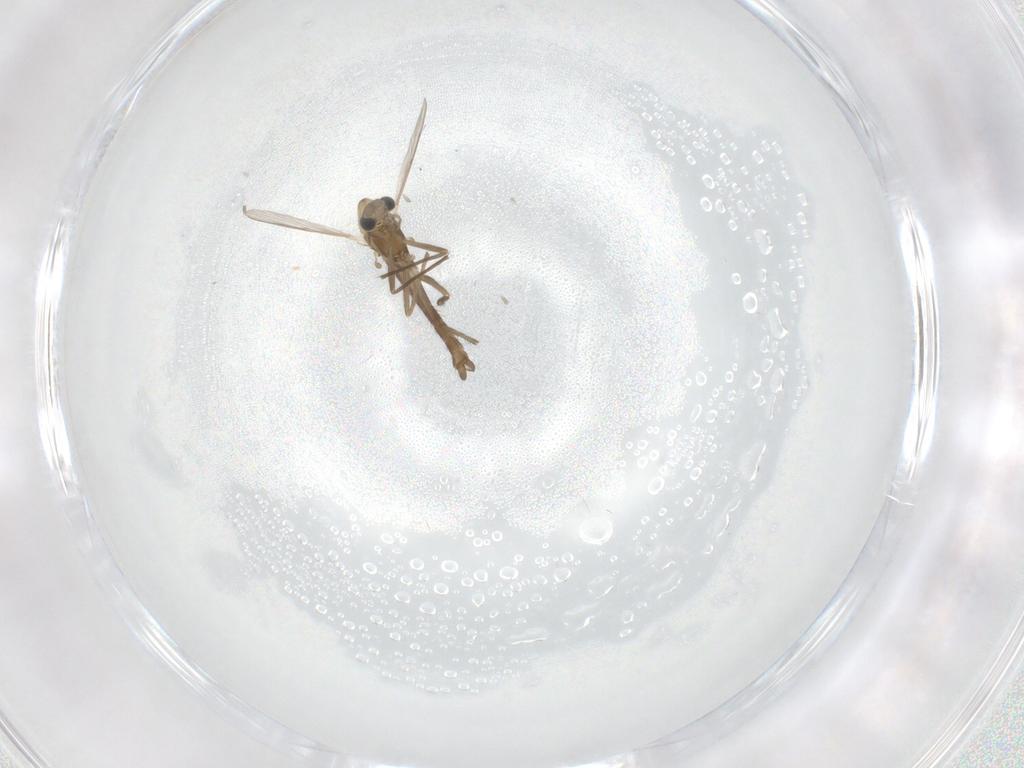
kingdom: Animalia
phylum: Arthropoda
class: Insecta
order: Diptera
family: Chironomidae
